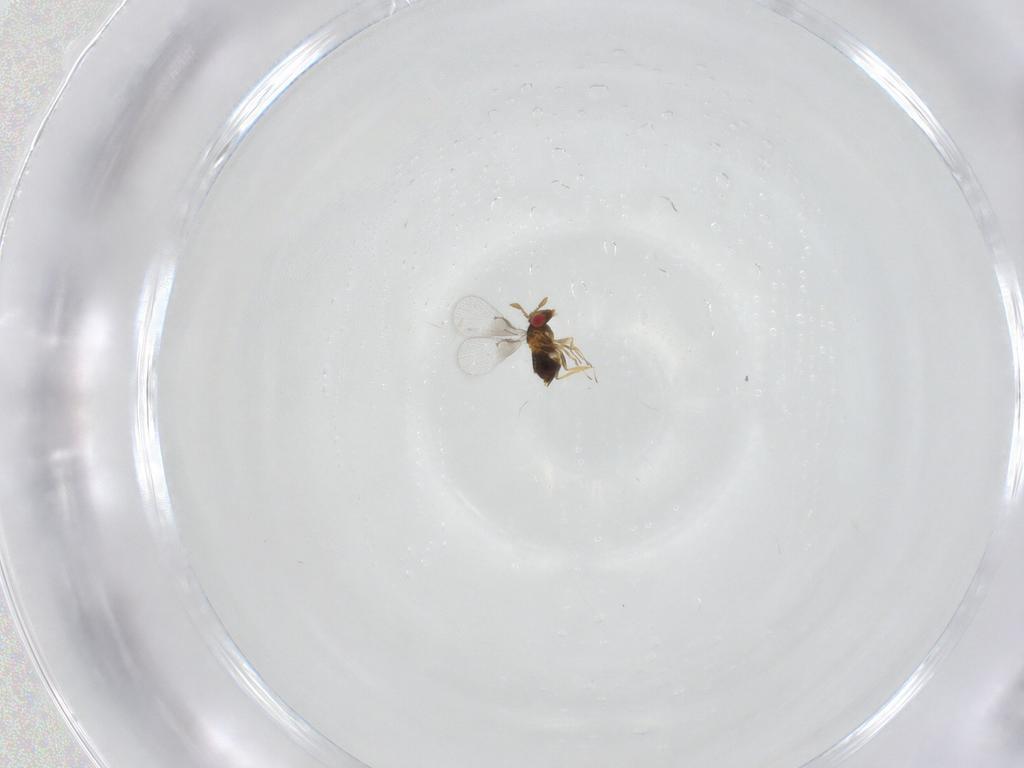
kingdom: Animalia
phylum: Arthropoda
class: Insecta
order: Hymenoptera
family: Trichogrammatidae
